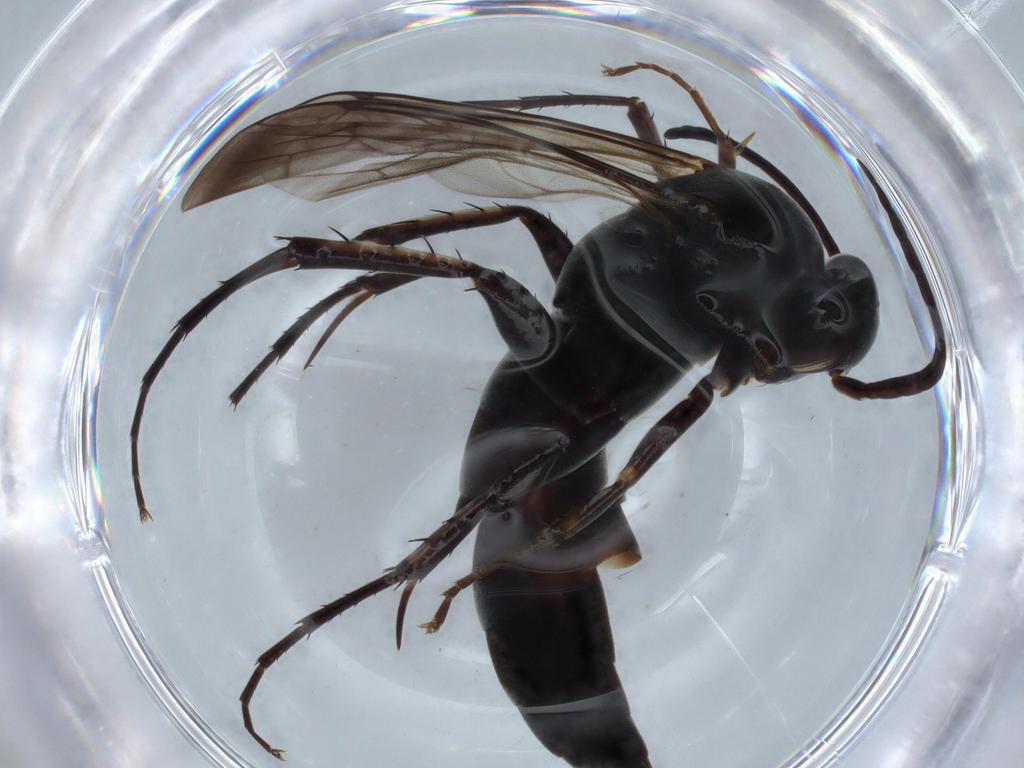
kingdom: Animalia
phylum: Arthropoda
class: Insecta
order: Hymenoptera
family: Pompilidae
